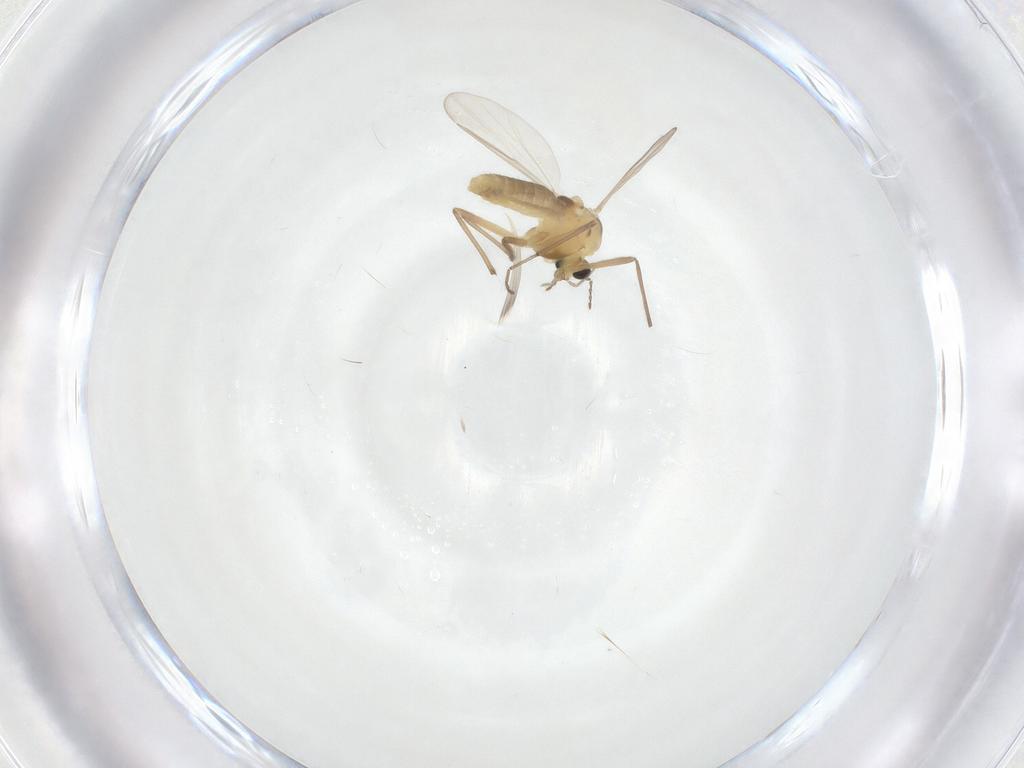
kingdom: Animalia
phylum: Arthropoda
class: Insecta
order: Diptera
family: Chironomidae
